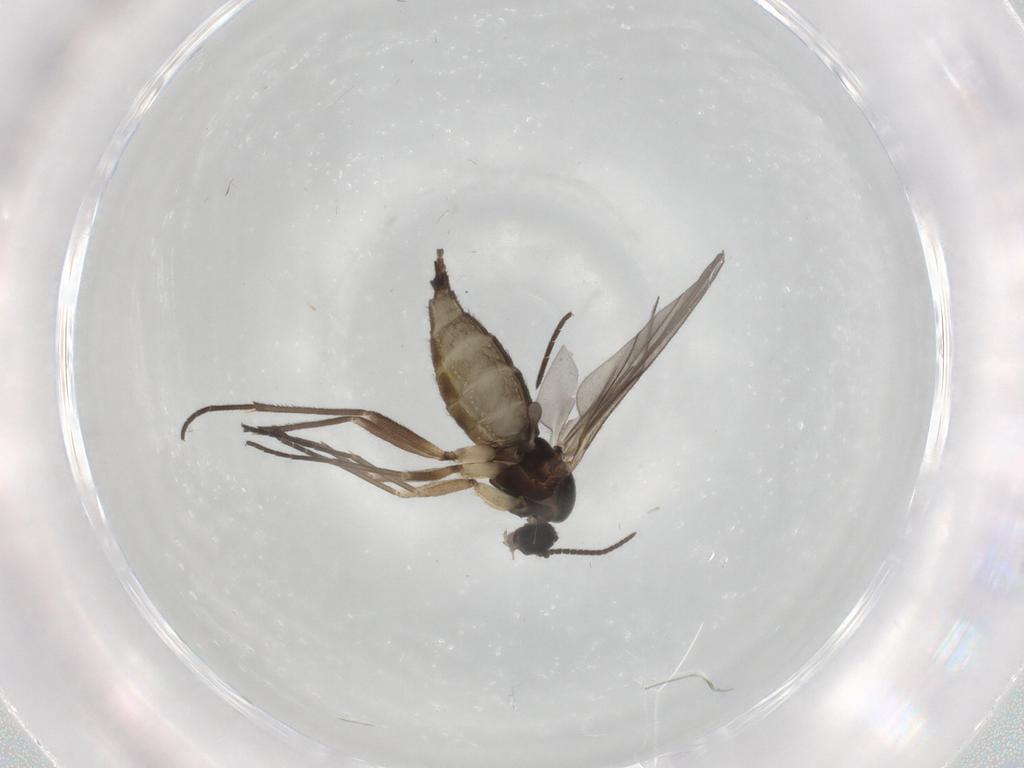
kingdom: Animalia
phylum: Arthropoda
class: Insecta
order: Diptera
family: Sciaridae
